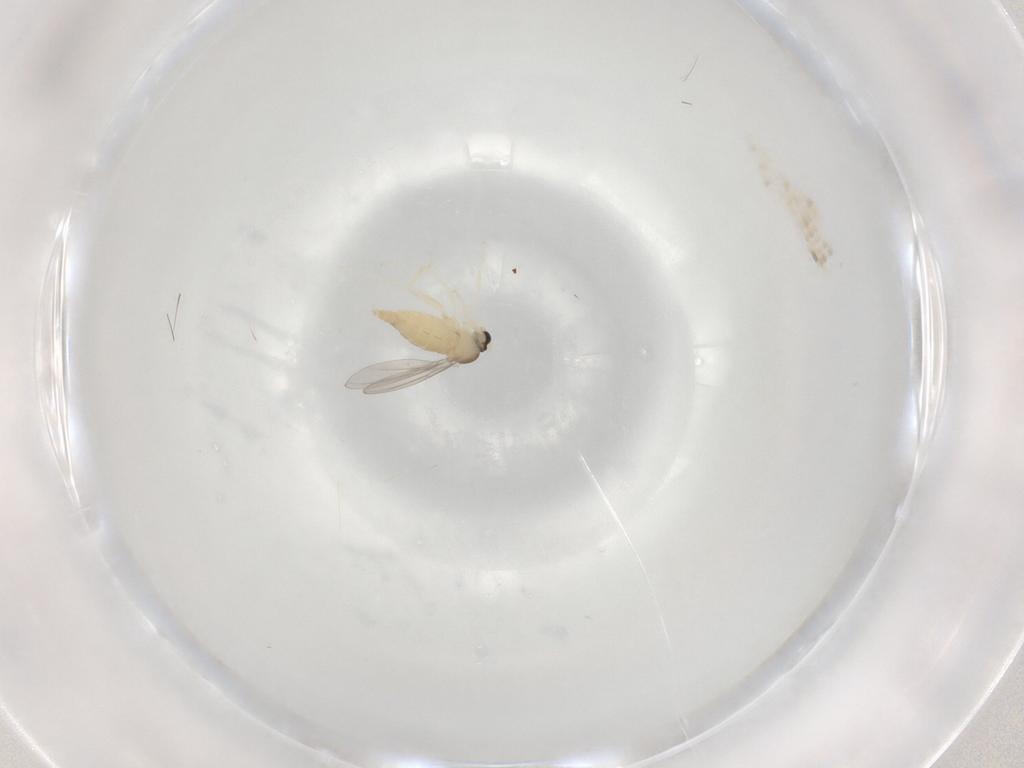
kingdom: Animalia
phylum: Arthropoda
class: Insecta
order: Diptera
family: Cecidomyiidae
